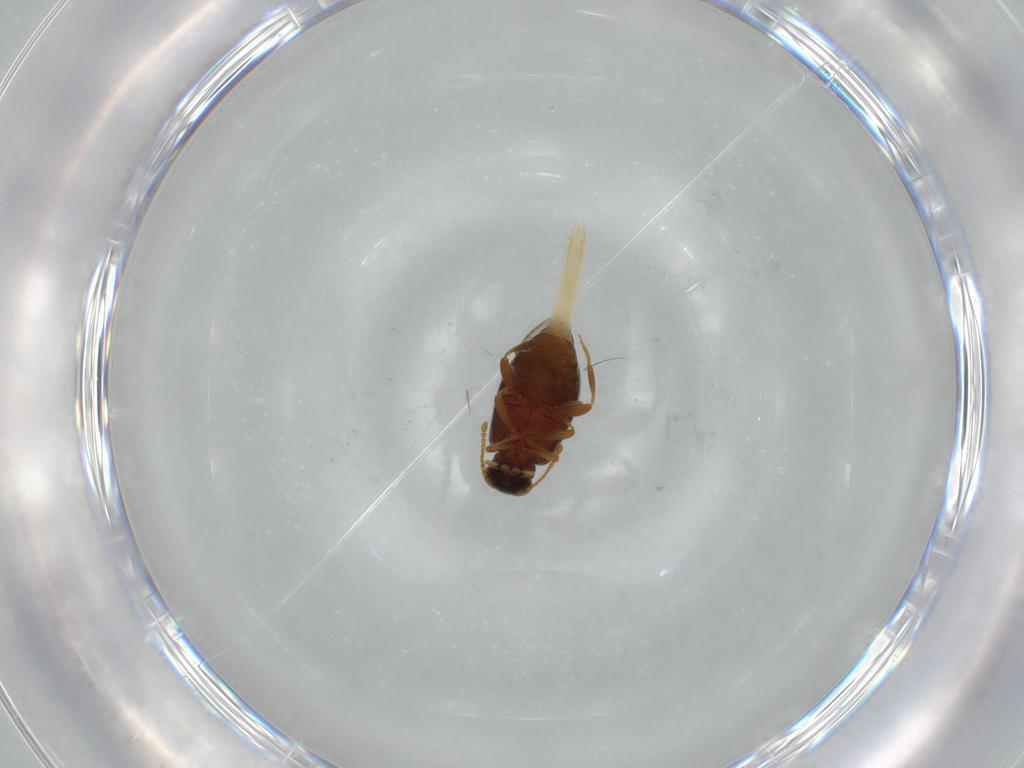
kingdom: Animalia
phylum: Arthropoda
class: Insecta
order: Coleoptera
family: Aderidae
